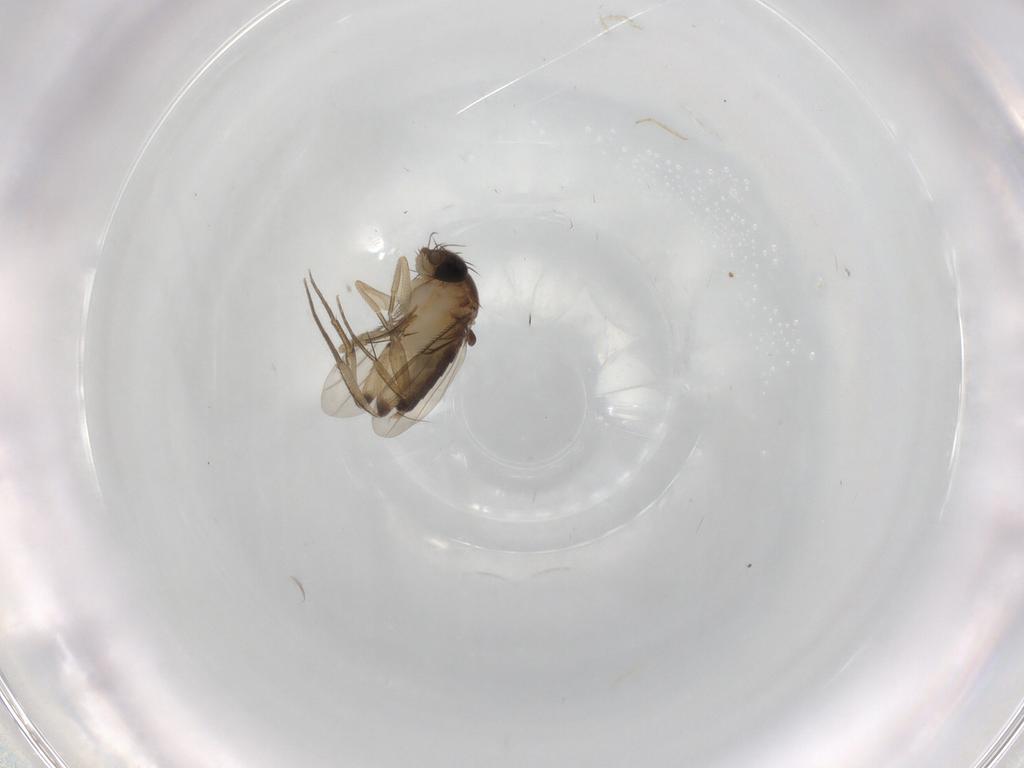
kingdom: Animalia
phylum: Arthropoda
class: Insecta
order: Diptera
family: Phoridae
